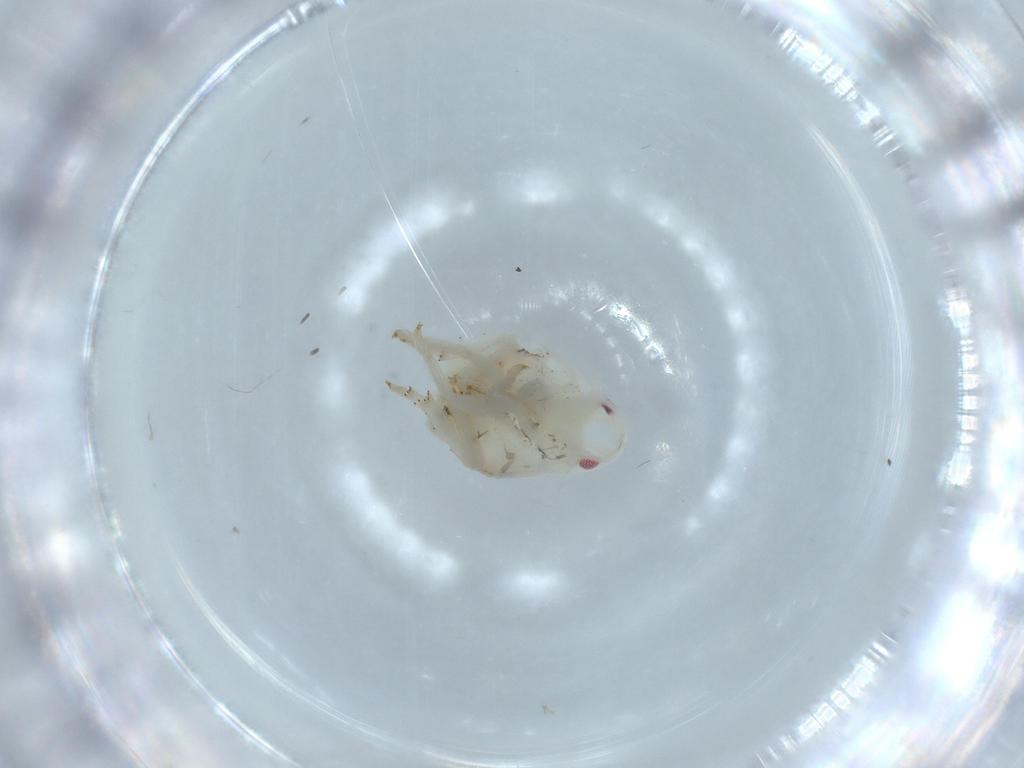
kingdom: Animalia
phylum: Arthropoda
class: Insecta
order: Hemiptera
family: Flatidae
